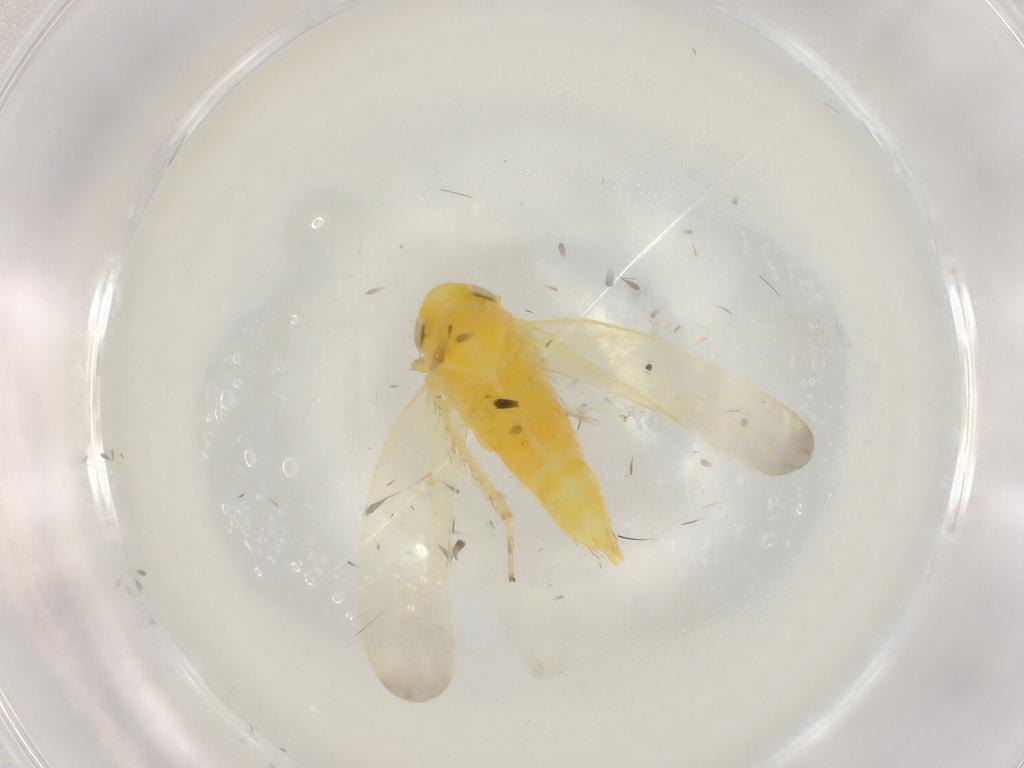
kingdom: Animalia
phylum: Arthropoda
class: Insecta
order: Hemiptera
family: Cicadellidae
